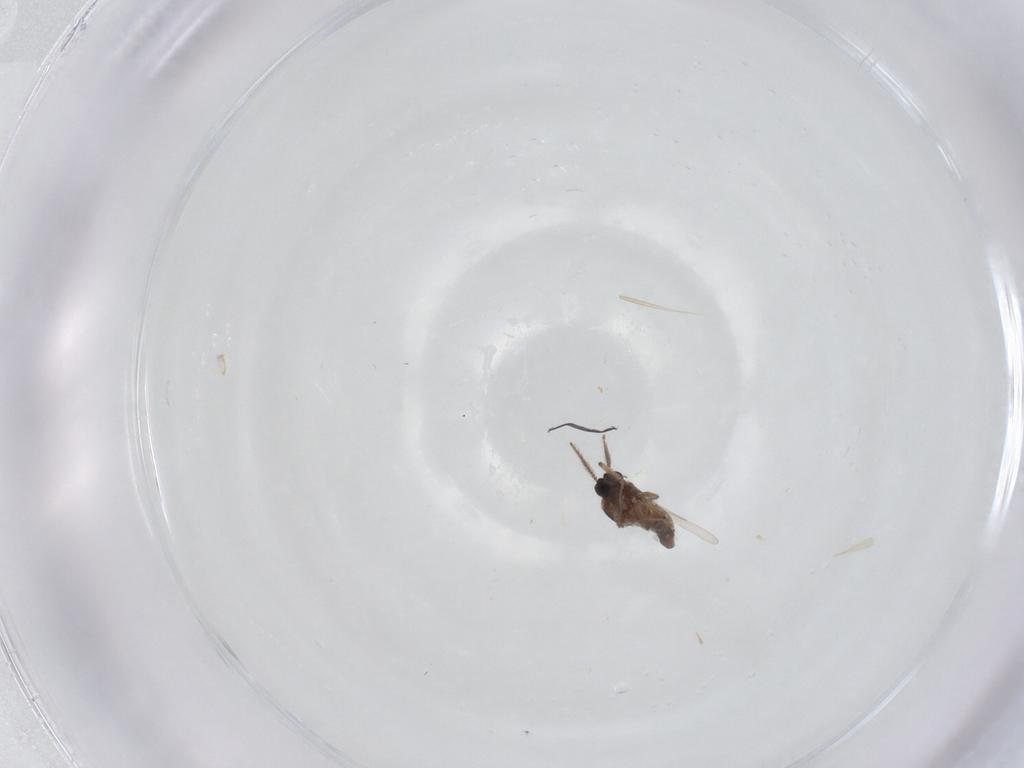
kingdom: Animalia
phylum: Arthropoda
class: Insecta
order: Diptera
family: Ceratopogonidae
